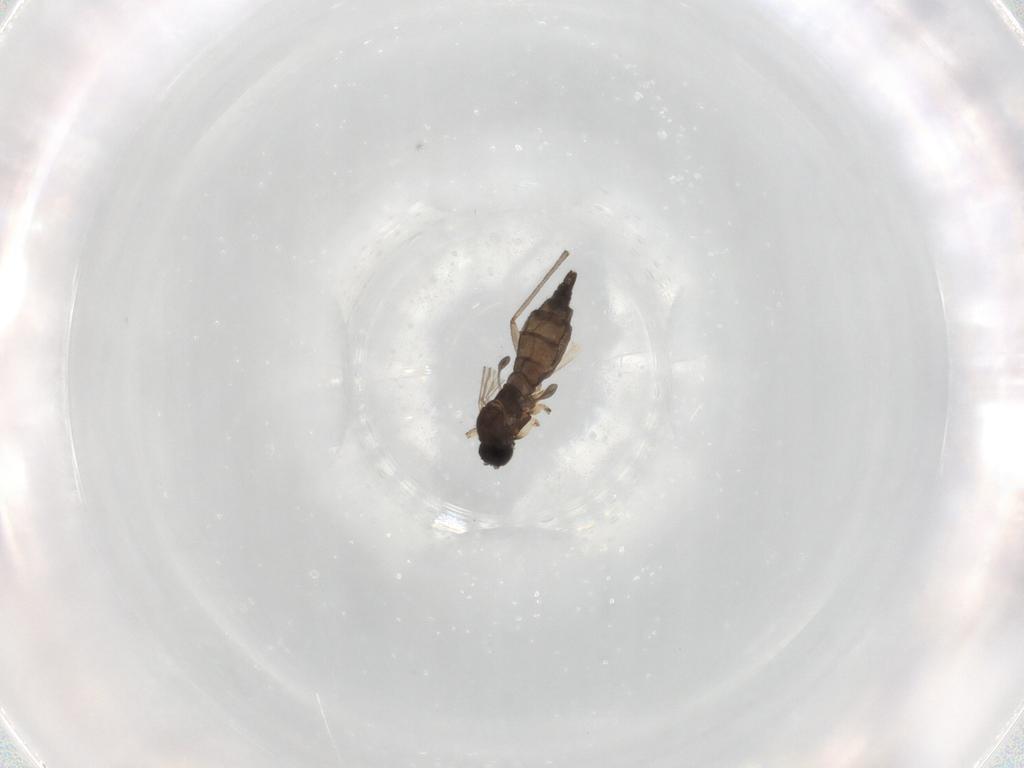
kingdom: Animalia
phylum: Arthropoda
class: Insecta
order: Diptera
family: Sciaridae
